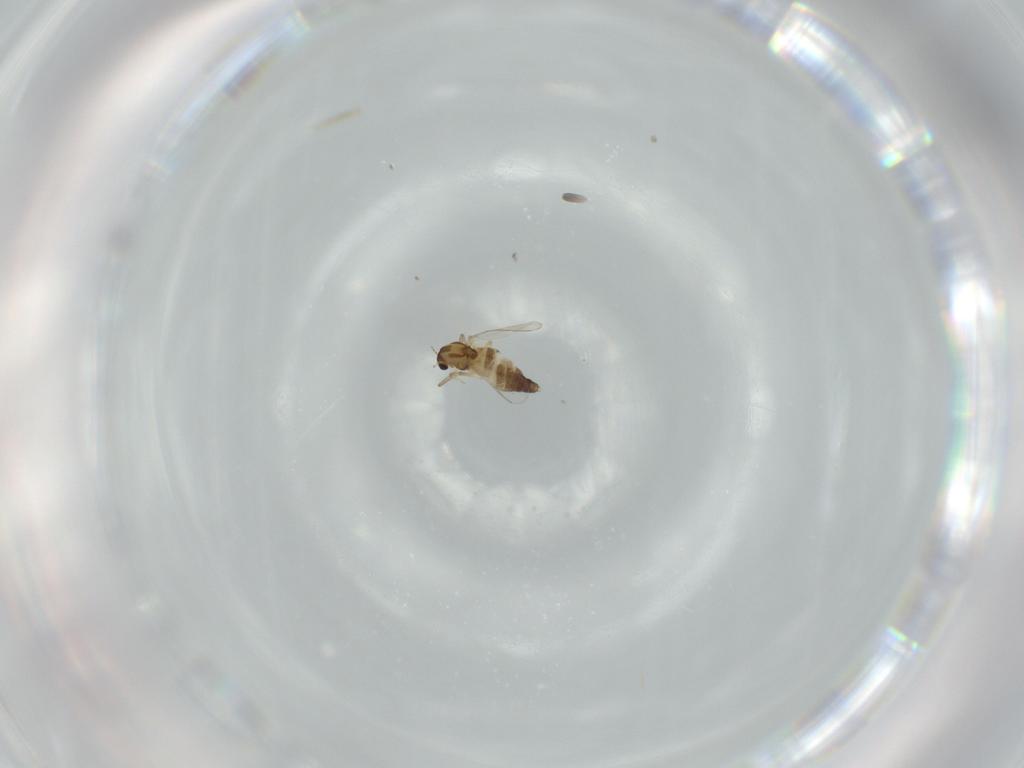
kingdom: Animalia
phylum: Arthropoda
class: Insecta
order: Diptera
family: Chironomidae
